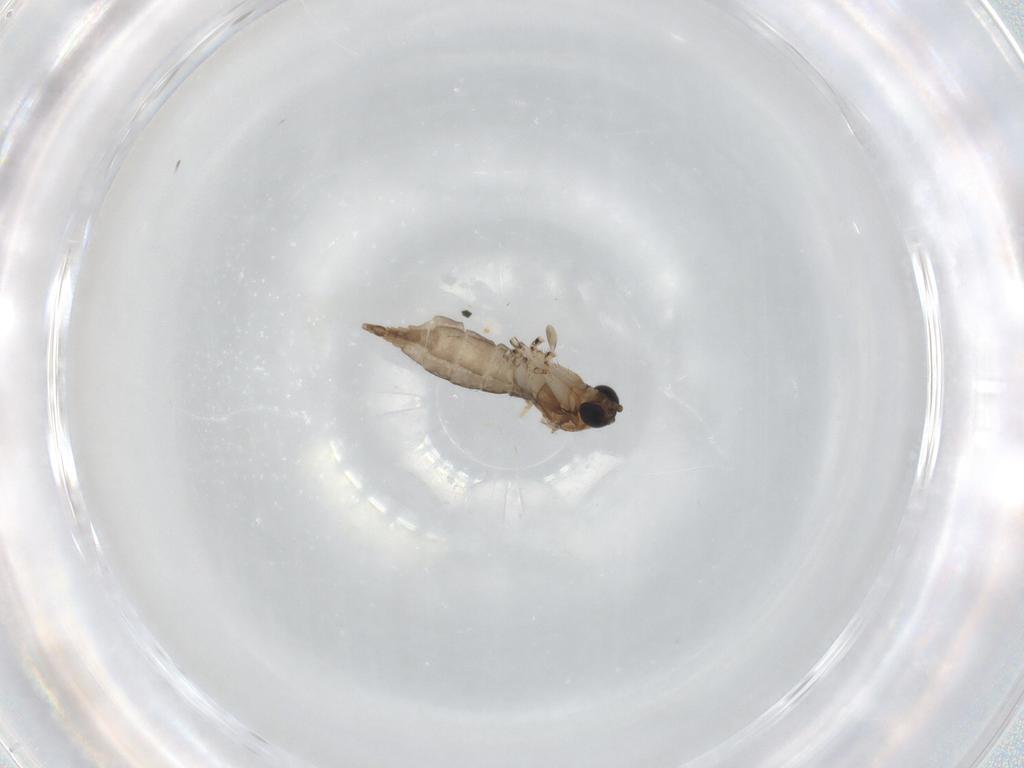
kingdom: Animalia
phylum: Arthropoda
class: Insecta
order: Diptera
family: Sciaridae
